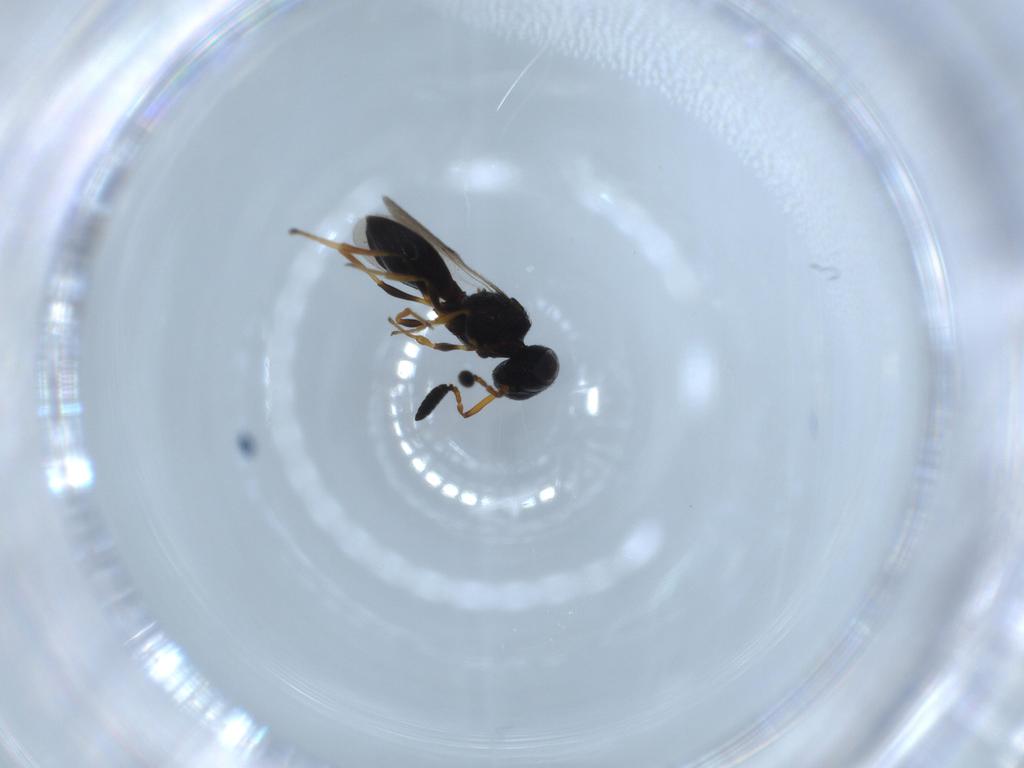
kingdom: Animalia
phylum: Arthropoda
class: Insecta
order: Hymenoptera
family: Scelionidae
